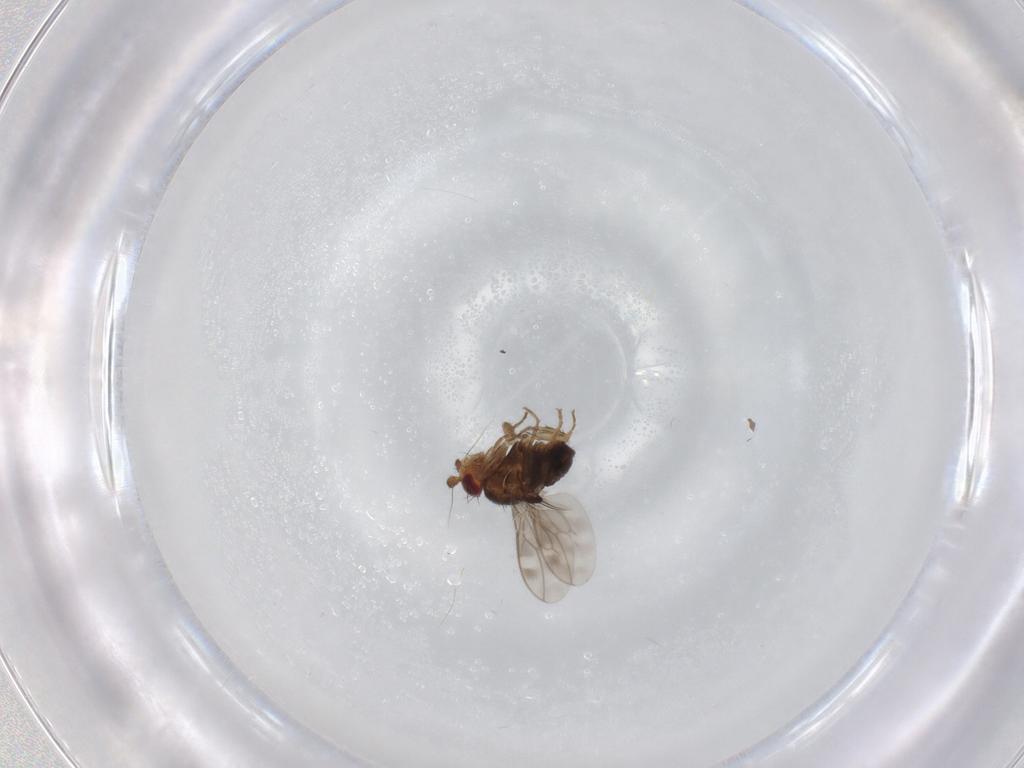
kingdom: Animalia
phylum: Arthropoda
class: Insecta
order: Diptera
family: Sphaeroceridae
